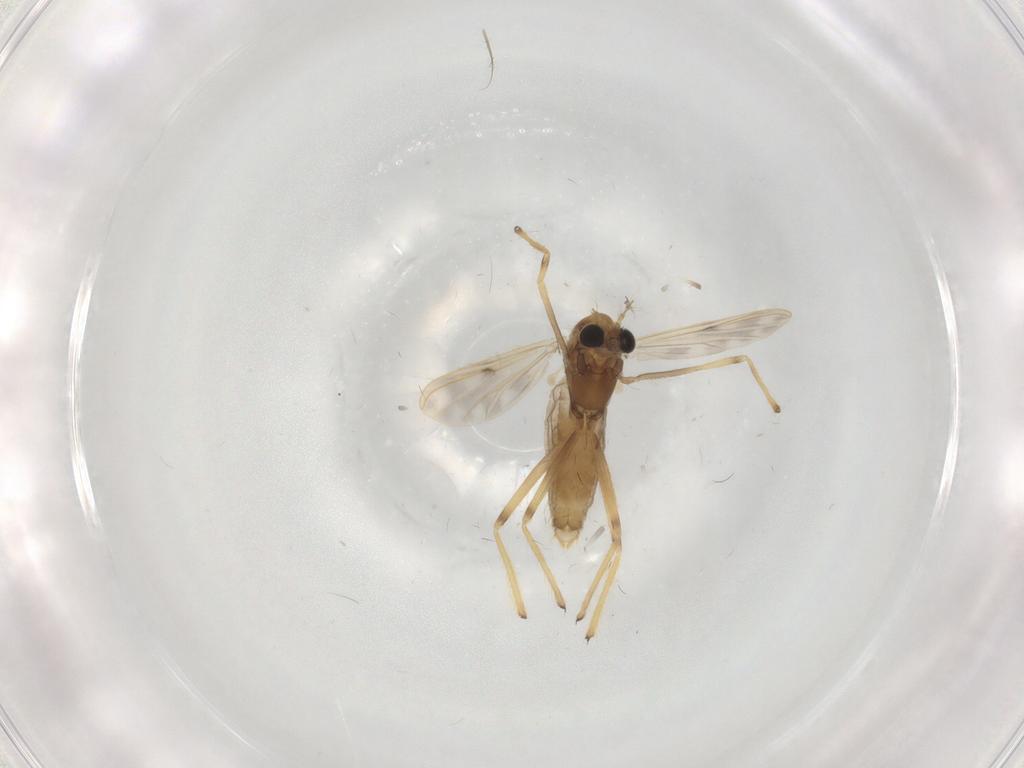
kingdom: Animalia
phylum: Arthropoda
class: Insecta
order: Diptera
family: Chironomidae
